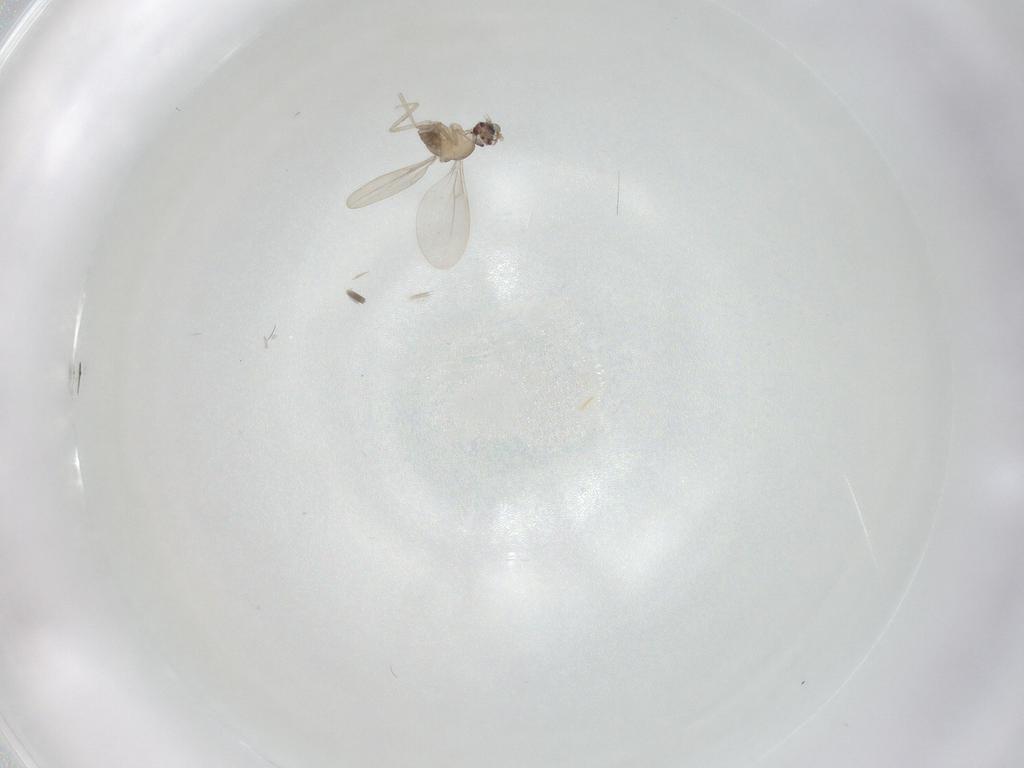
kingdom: Animalia
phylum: Arthropoda
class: Insecta
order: Diptera
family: Cecidomyiidae
